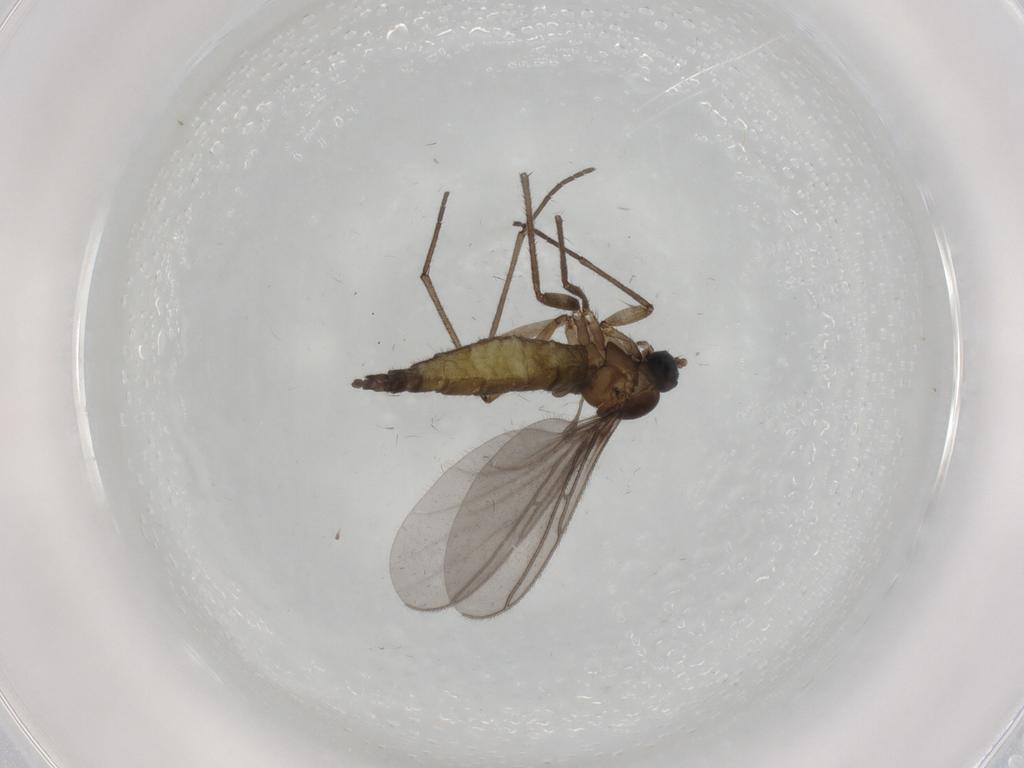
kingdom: Animalia
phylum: Arthropoda
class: Insecta
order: Diptera
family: Sciaridae
